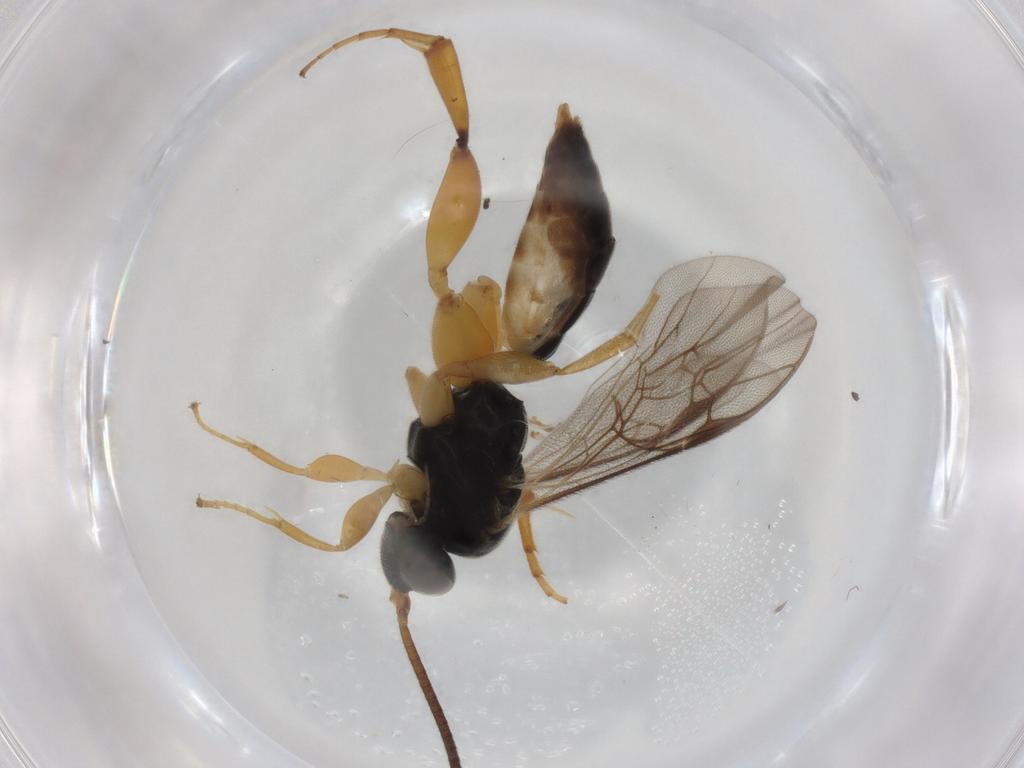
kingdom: Animalia
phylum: Arthropoda
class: Insecta
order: Hymenoptera
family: Ichneumonidae
